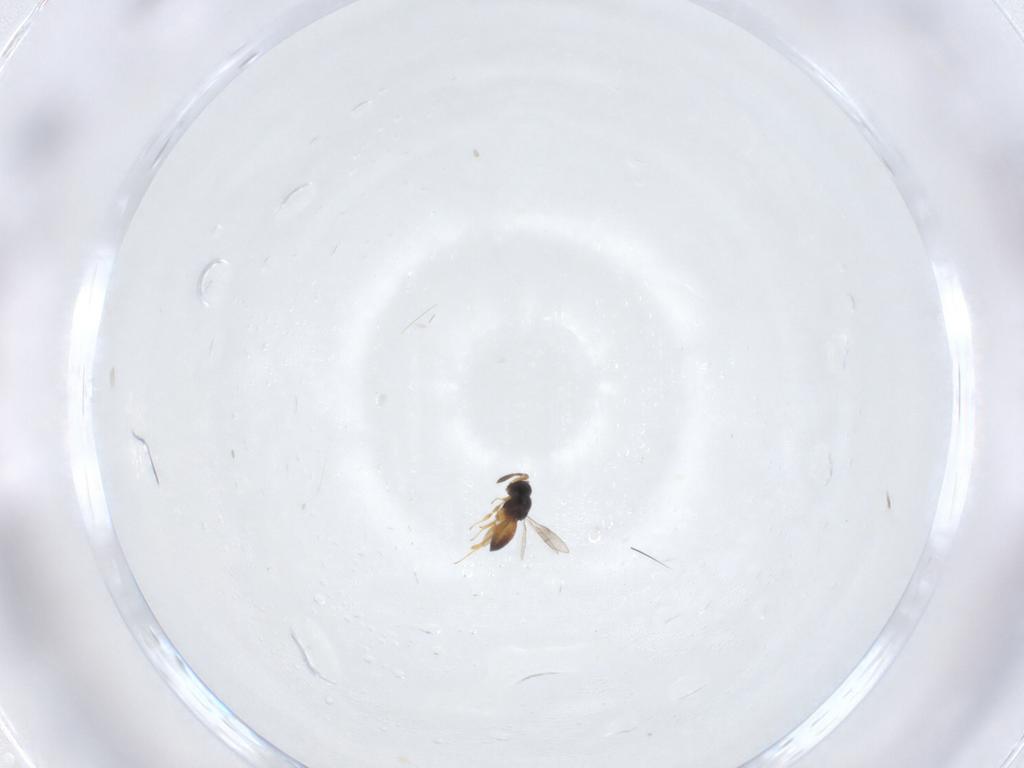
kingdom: Animalia
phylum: Arthropoda
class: Insecta
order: Hymenoptera
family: Scelionidae
